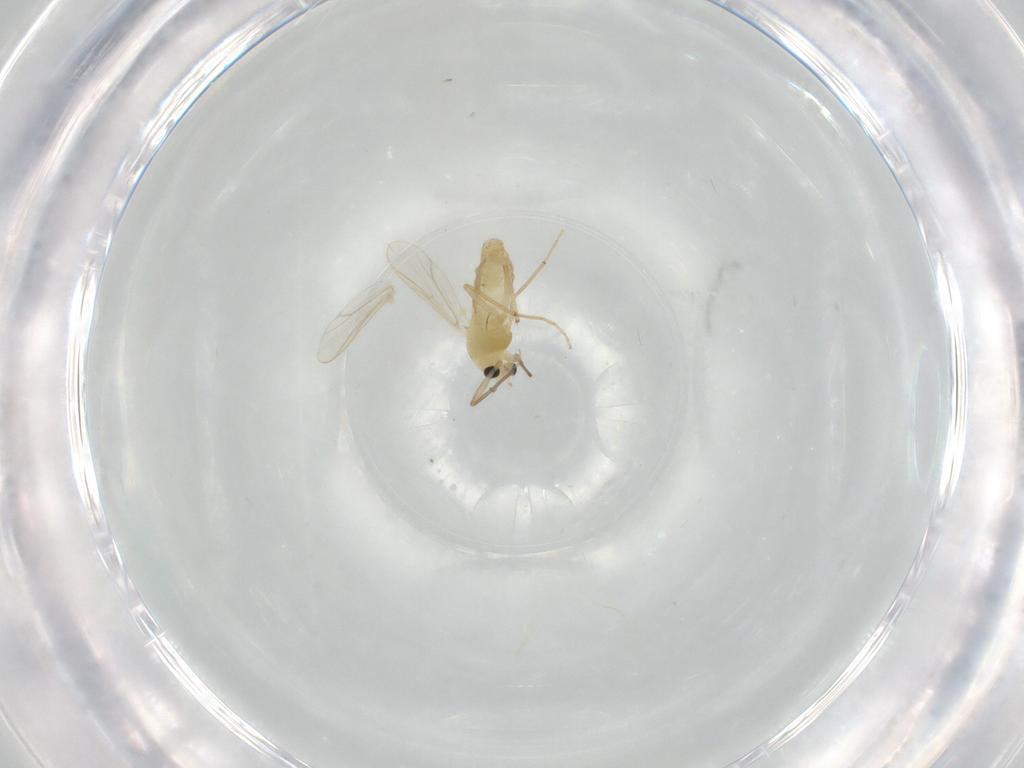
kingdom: Animalia
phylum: Arthropoda
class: Insecta
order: Diptera
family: Chironomidae
